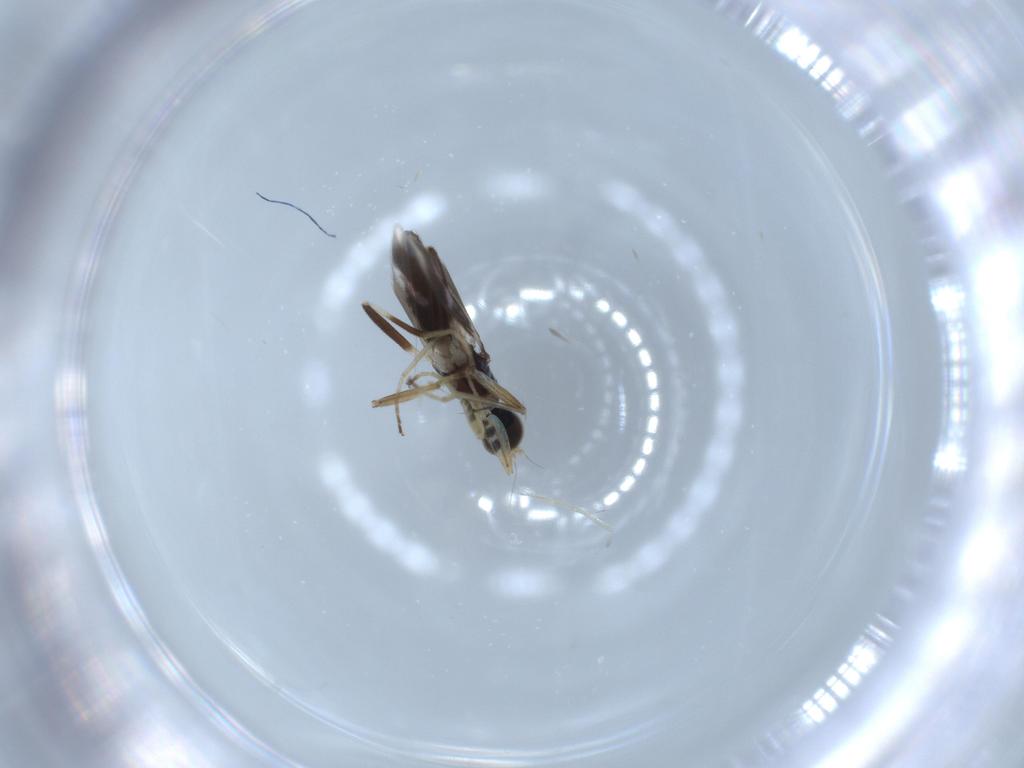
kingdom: Animalia
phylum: Arthropoda
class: Insecta
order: Diptera
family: Hybotidae
